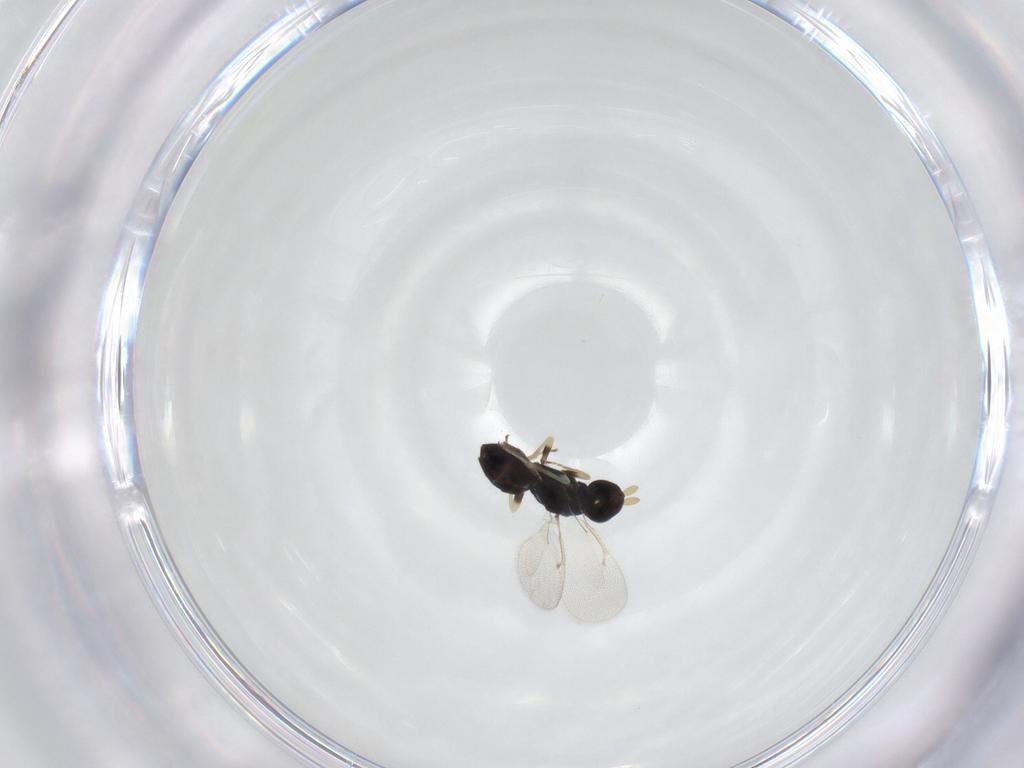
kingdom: Animalia
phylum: Arthropoda
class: Insecta
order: Hymenoptera
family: Eulophidae
